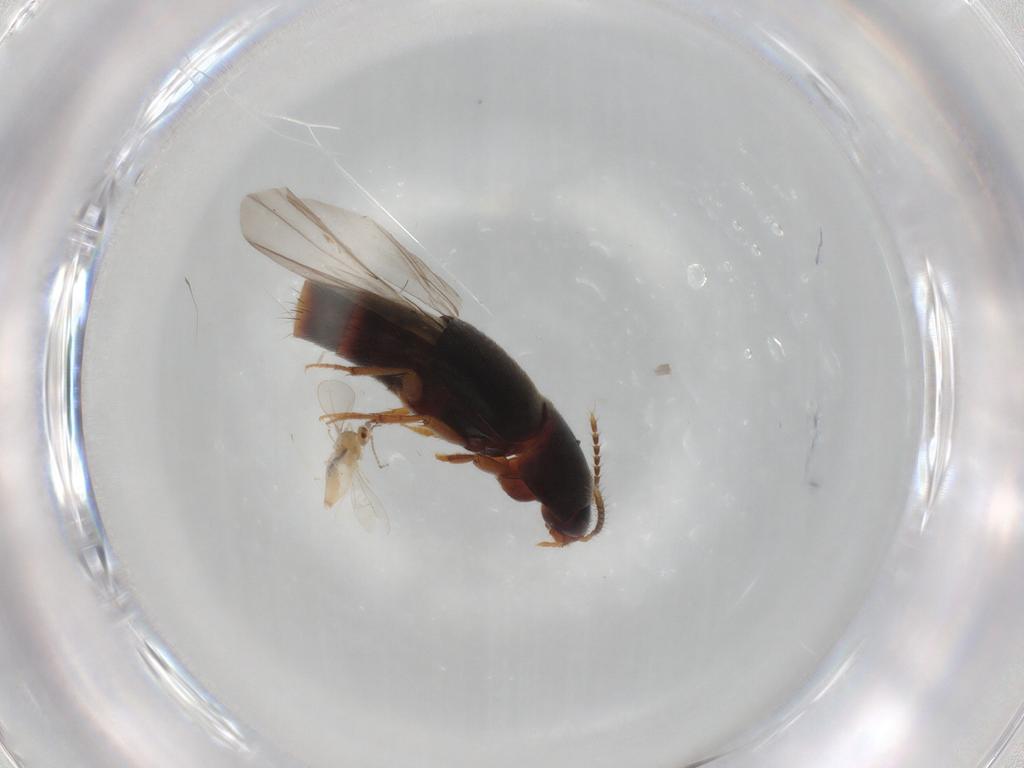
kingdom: Animalia
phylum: Arthropoda
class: Insecta
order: Coleoptera
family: Staphylinidae
